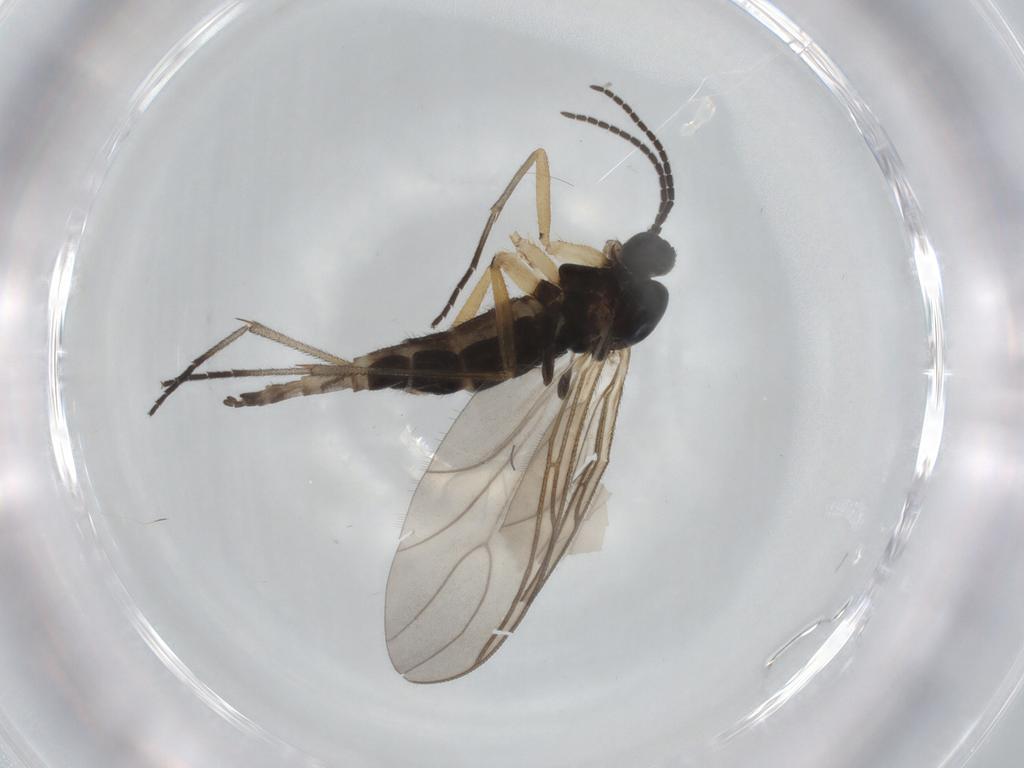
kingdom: Animalia
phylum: Arthropoda
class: Insecta
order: Diptera
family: Sciaridae
